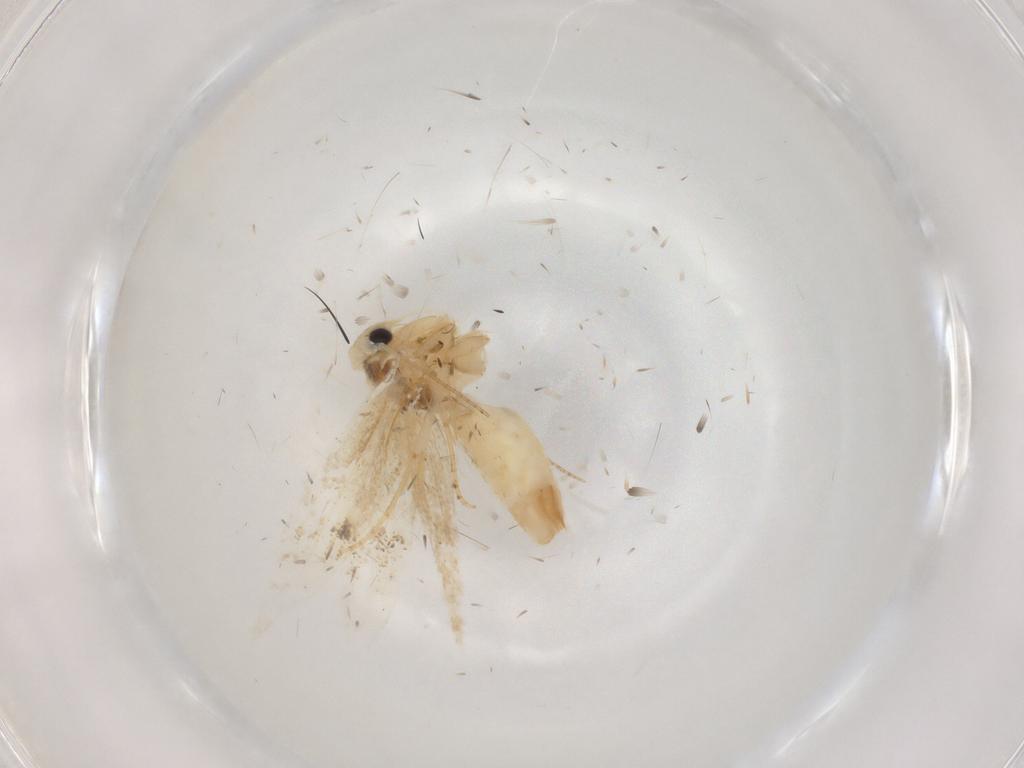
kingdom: Animalia
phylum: Arthropoda
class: Insecta
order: Lepidoptera
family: Bucculatricidae
